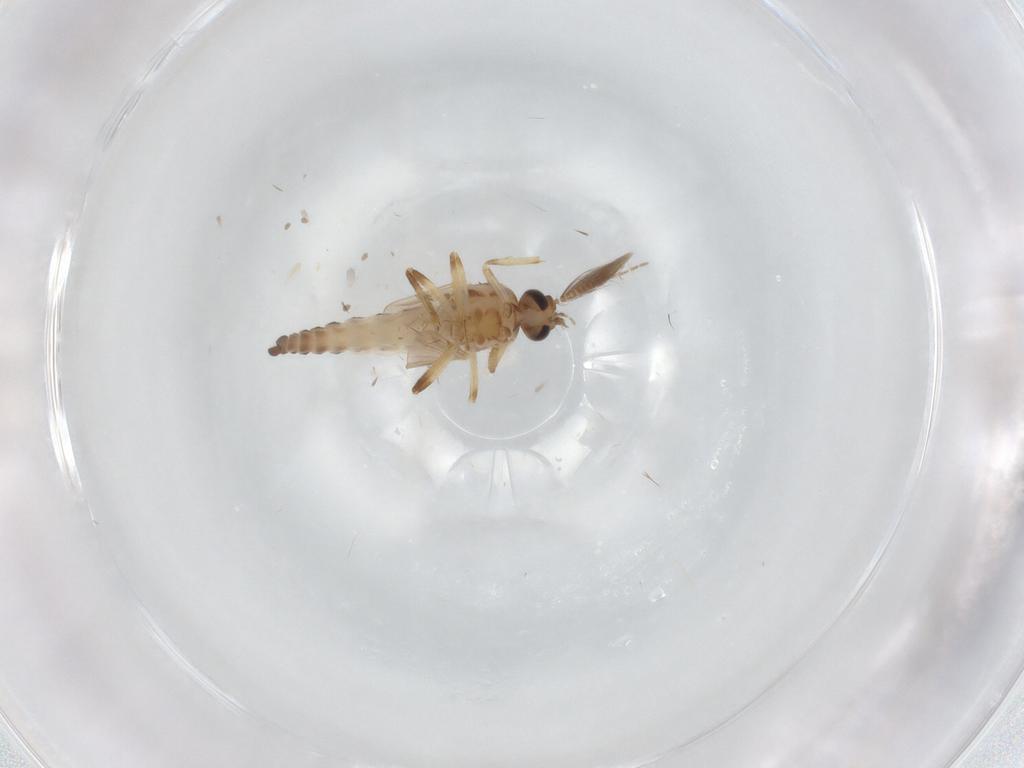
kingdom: Animalia
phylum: Arthropoda
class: Insecta
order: Diptera
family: Ceratopogonidae
